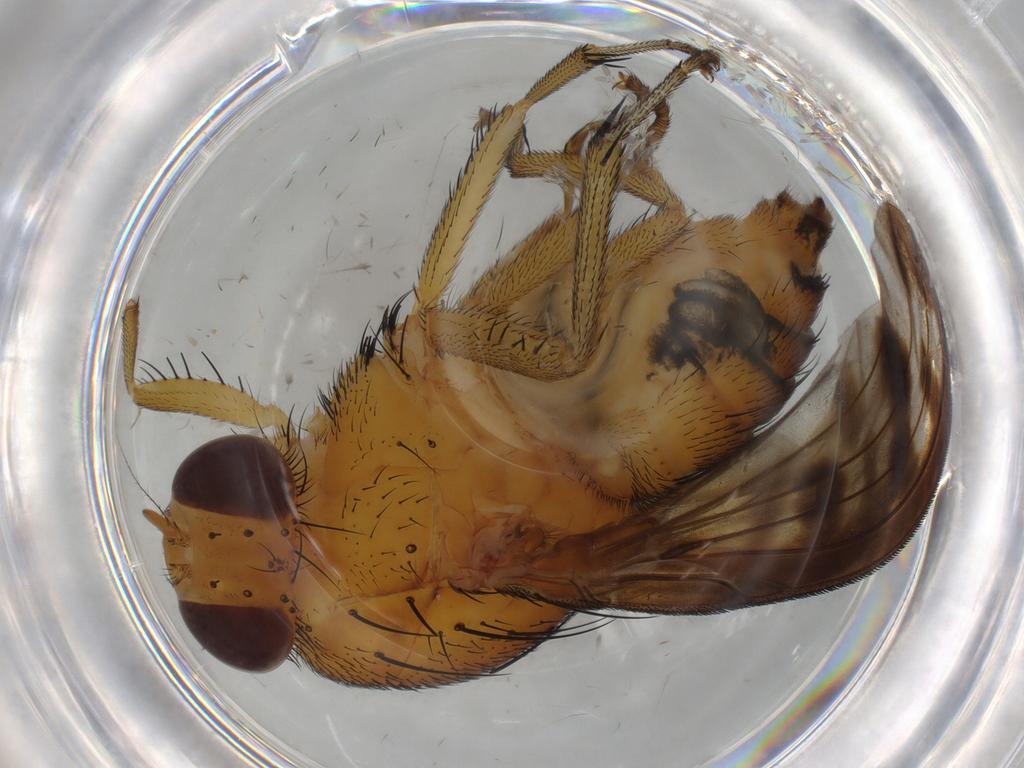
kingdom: Animalia
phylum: Arthropoda
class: Insecta
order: Diptera
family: Lauxaniidae
